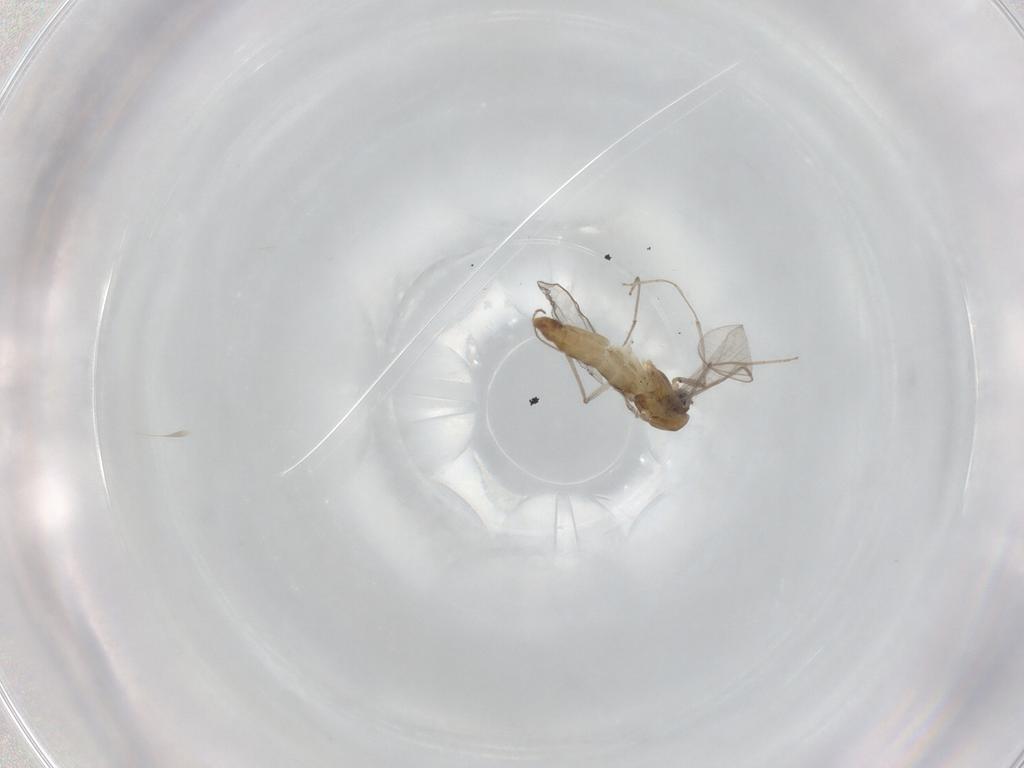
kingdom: Animalia
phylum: Arthropoda
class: Insecta
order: Diptera
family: Chironomidae
